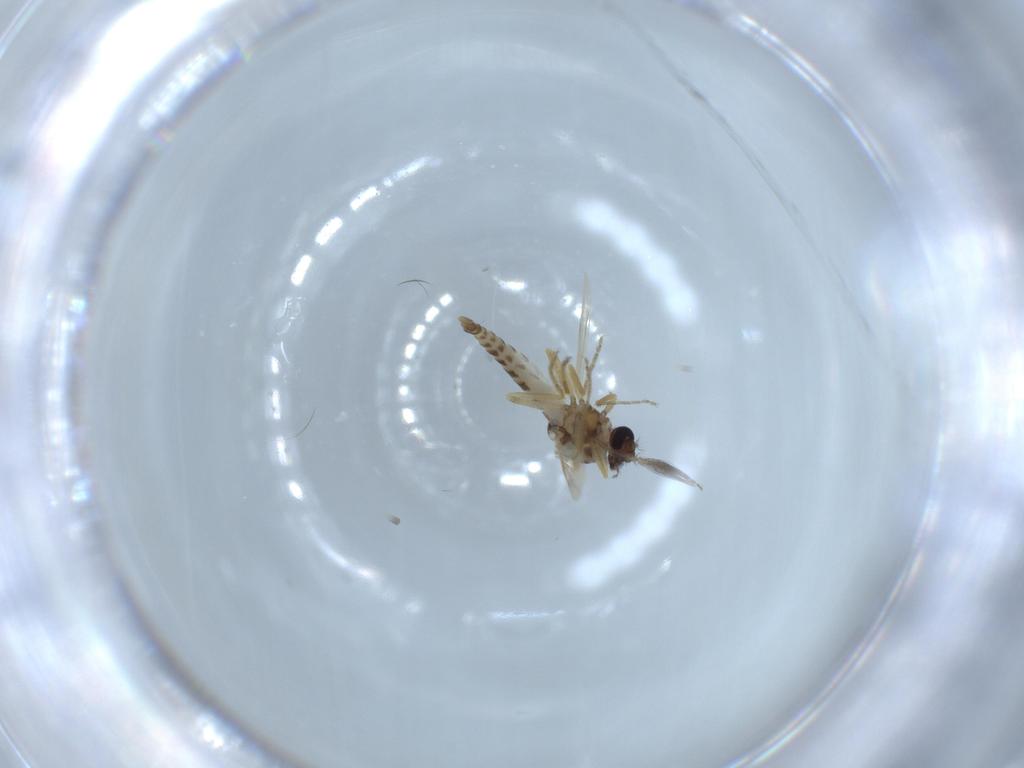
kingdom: Animalia
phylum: Arthropoda
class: Insecta
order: Diptera
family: Ceratopogonidae
